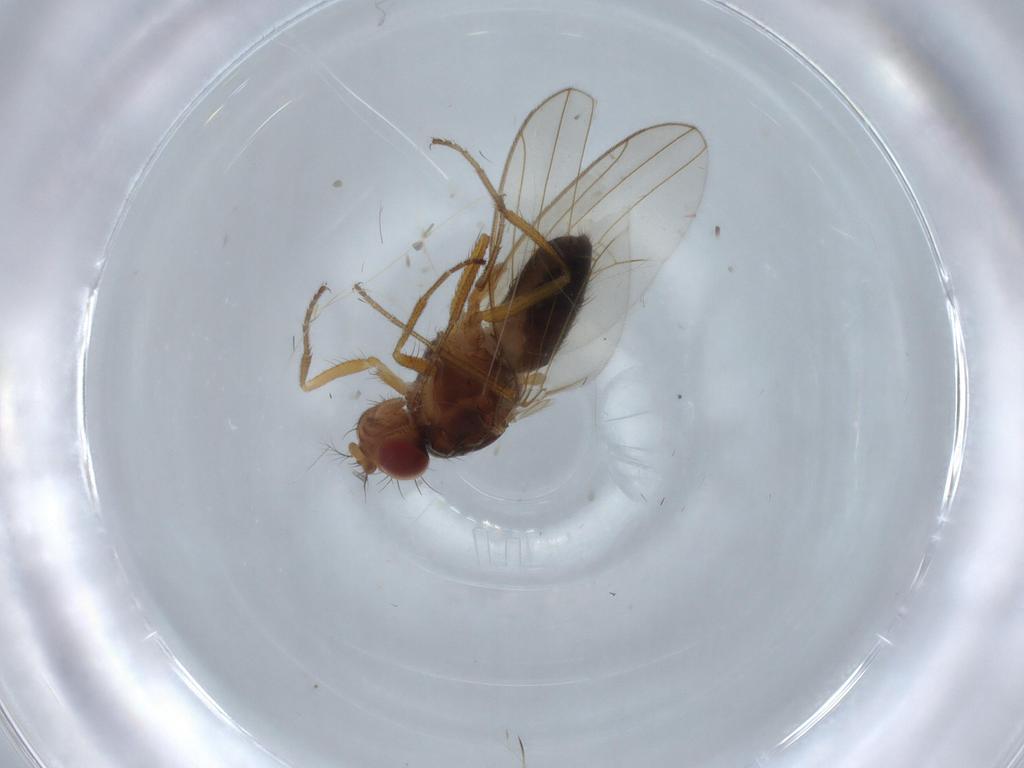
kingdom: Animalia
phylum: Arthropoda
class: Insecta
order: Diptera
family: Drosophilidae
